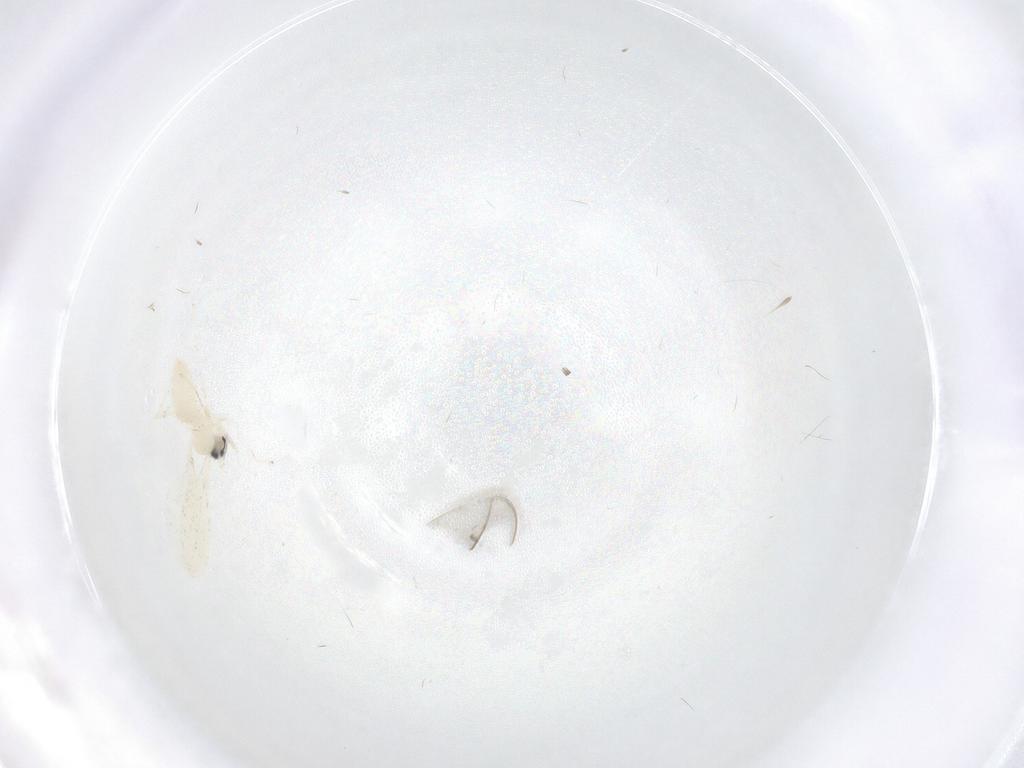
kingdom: Animalia
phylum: Arthropoda
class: Insecta
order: Diptera
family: Cecidomyiidae
